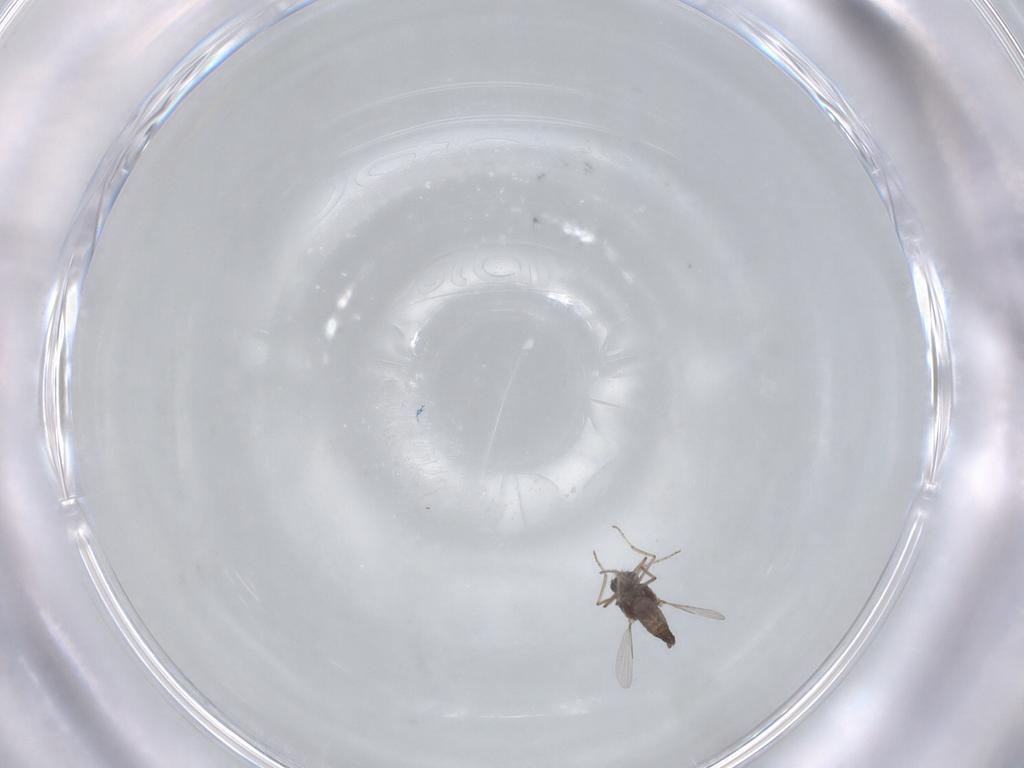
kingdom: Animalia
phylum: Arthropoda
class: Insecta
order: Diptera
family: Ceratopogonidae
